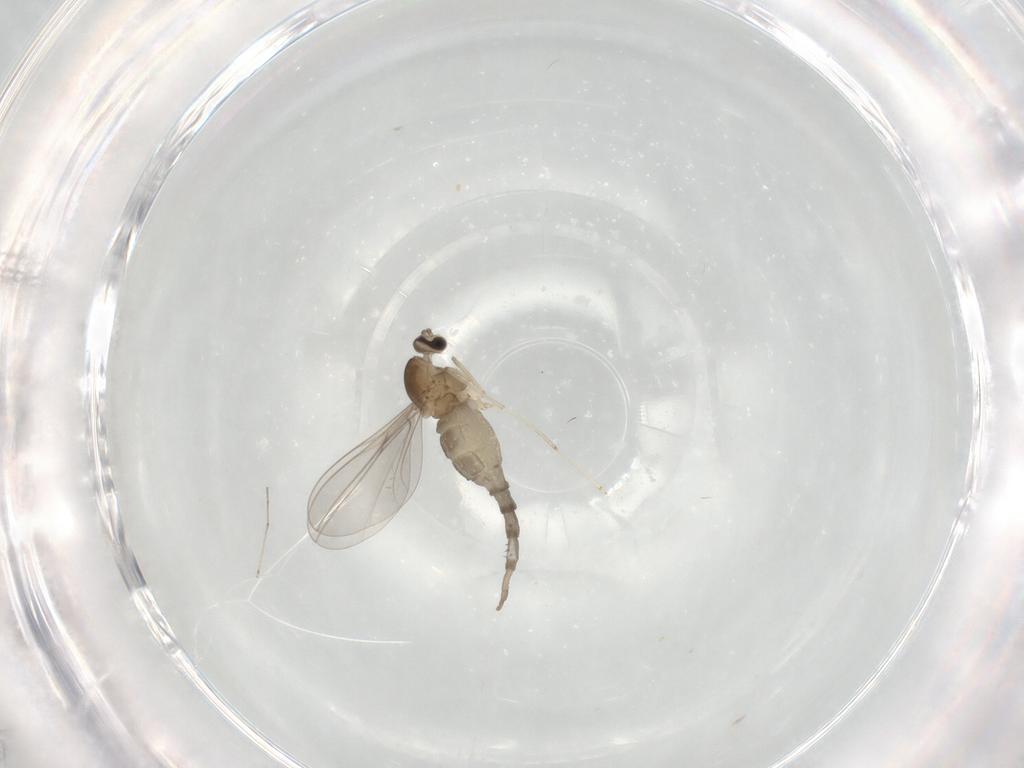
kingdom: Animalia
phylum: Arthropoda
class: Insecta
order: Diptera
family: Cecidomyiidae
